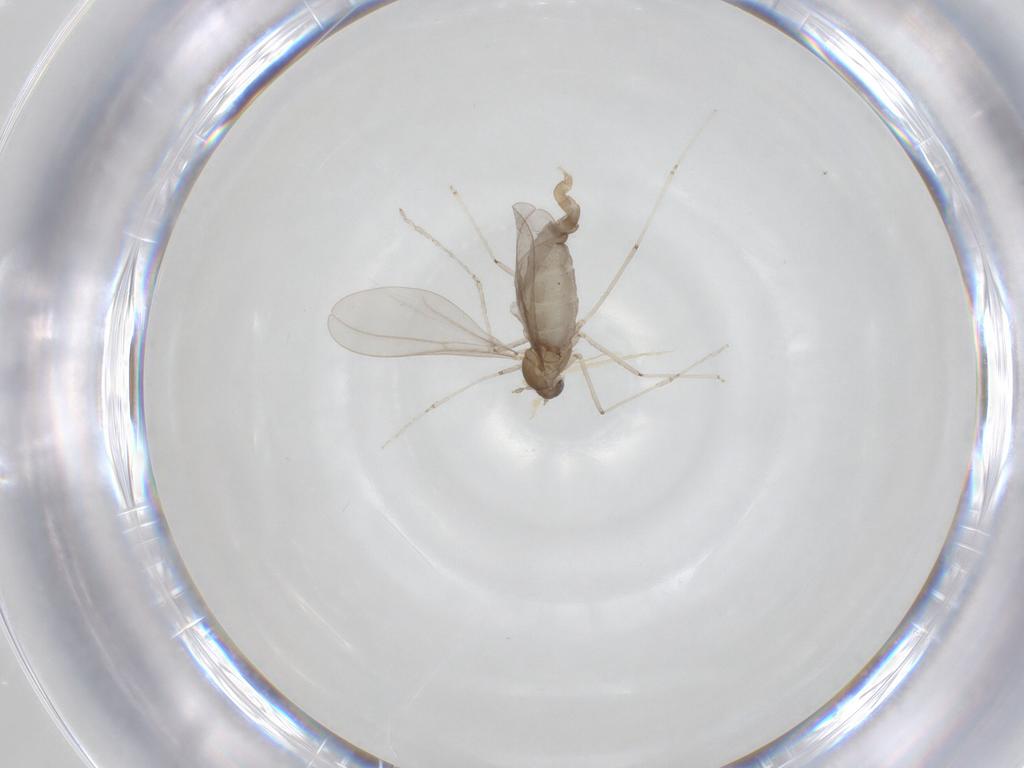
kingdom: Animalia
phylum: Arthropoda
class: Insecta
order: Diptera
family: Cecidomyiidae
